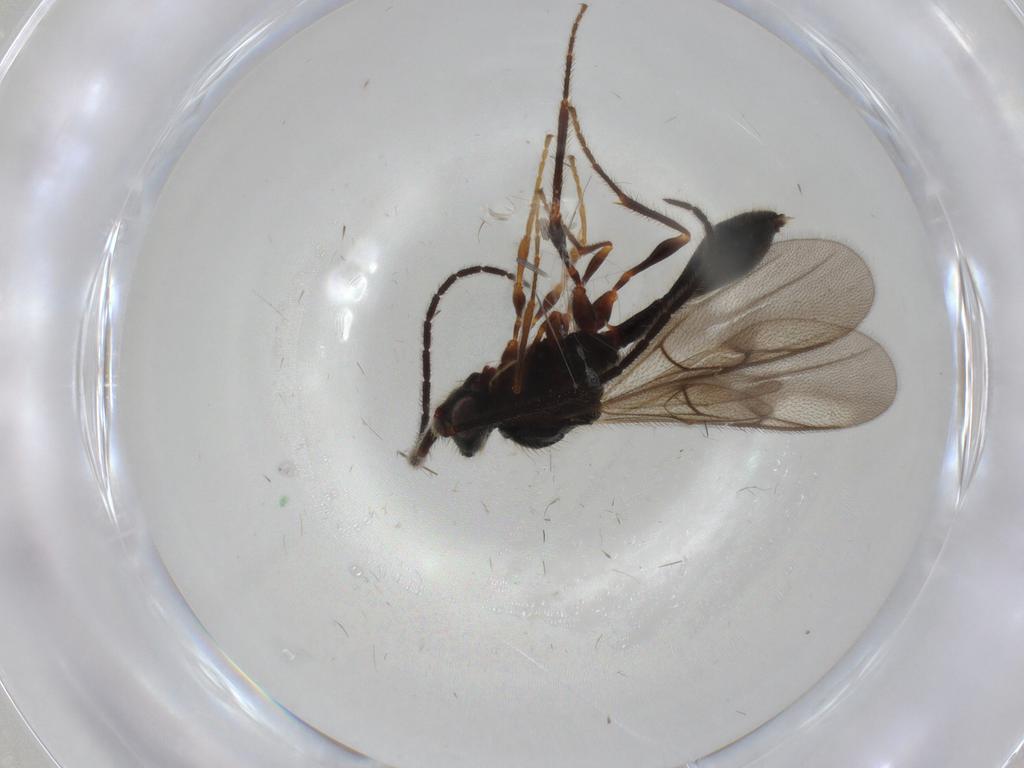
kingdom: Animalia
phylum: Arthropoda
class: Insecta
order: Hymenoptera
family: Diapriidae
